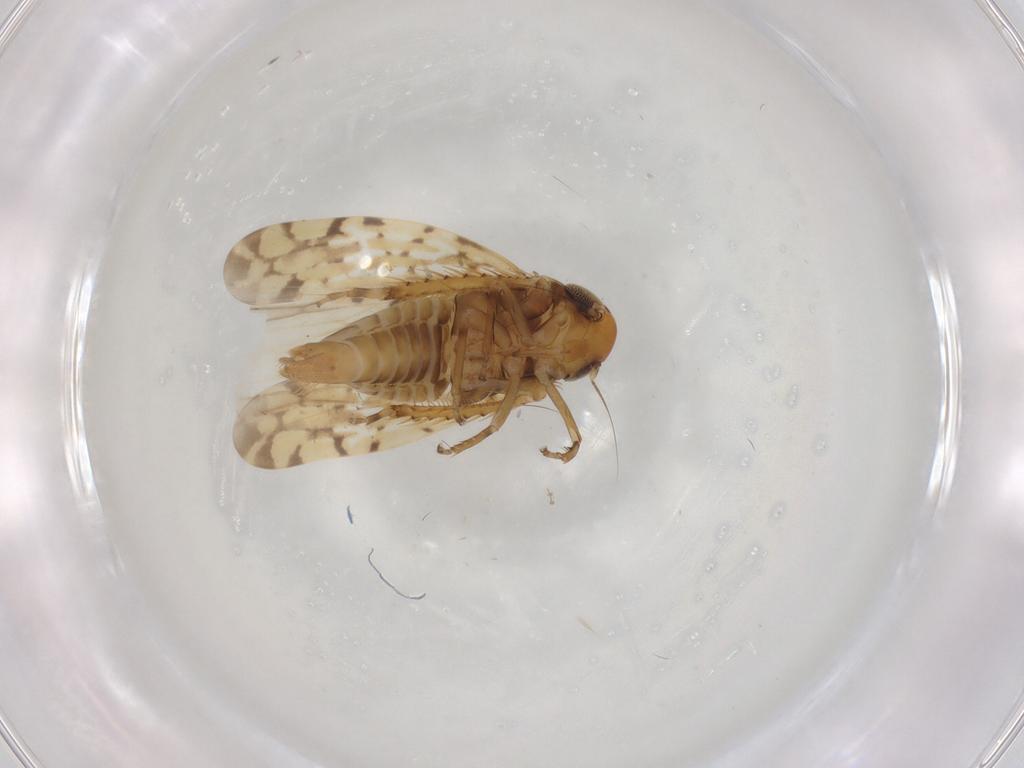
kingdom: Animalia
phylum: Arthropoda
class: Insecta
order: Hemiptera
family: Cicadellidae
